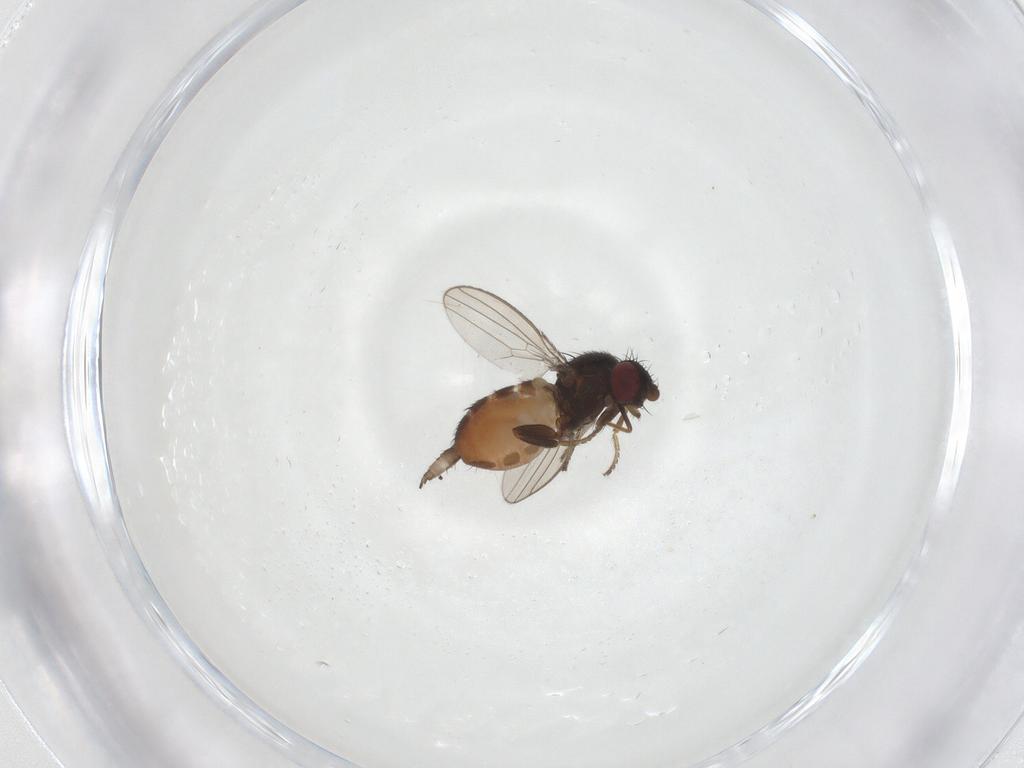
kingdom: Animalia
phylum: Arthropoda
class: Insecta
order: Diptera
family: Milichiidae
